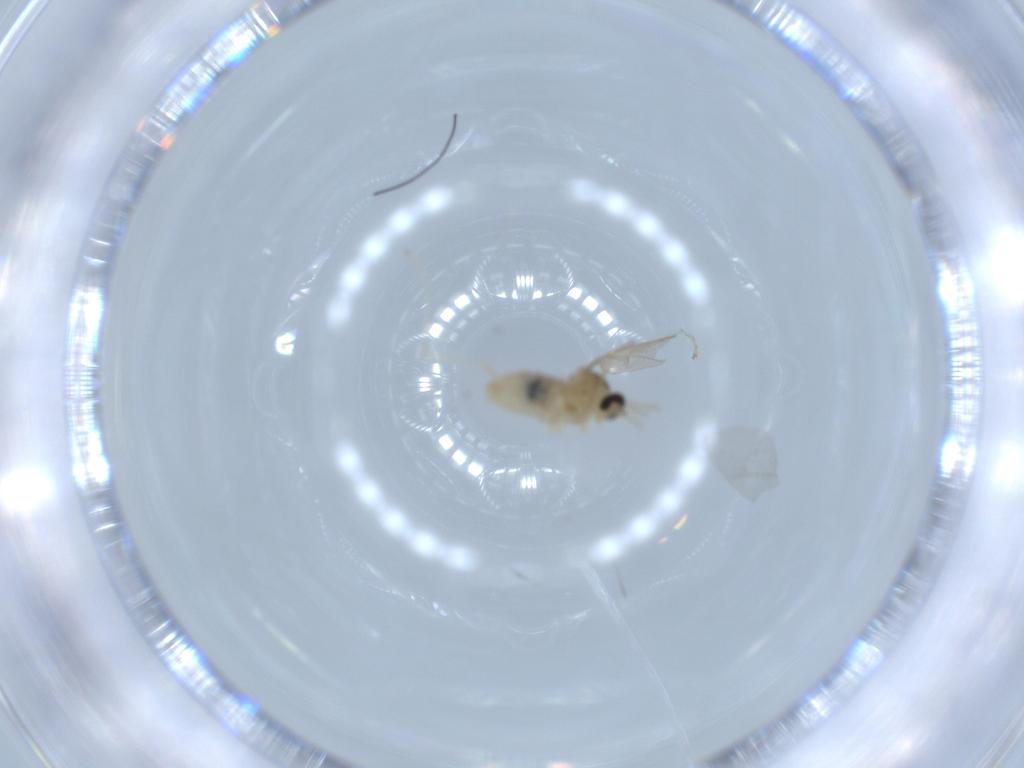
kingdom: Animalia
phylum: Arthropoda
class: Insecta
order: Diptera
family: Cecidomyiidae
